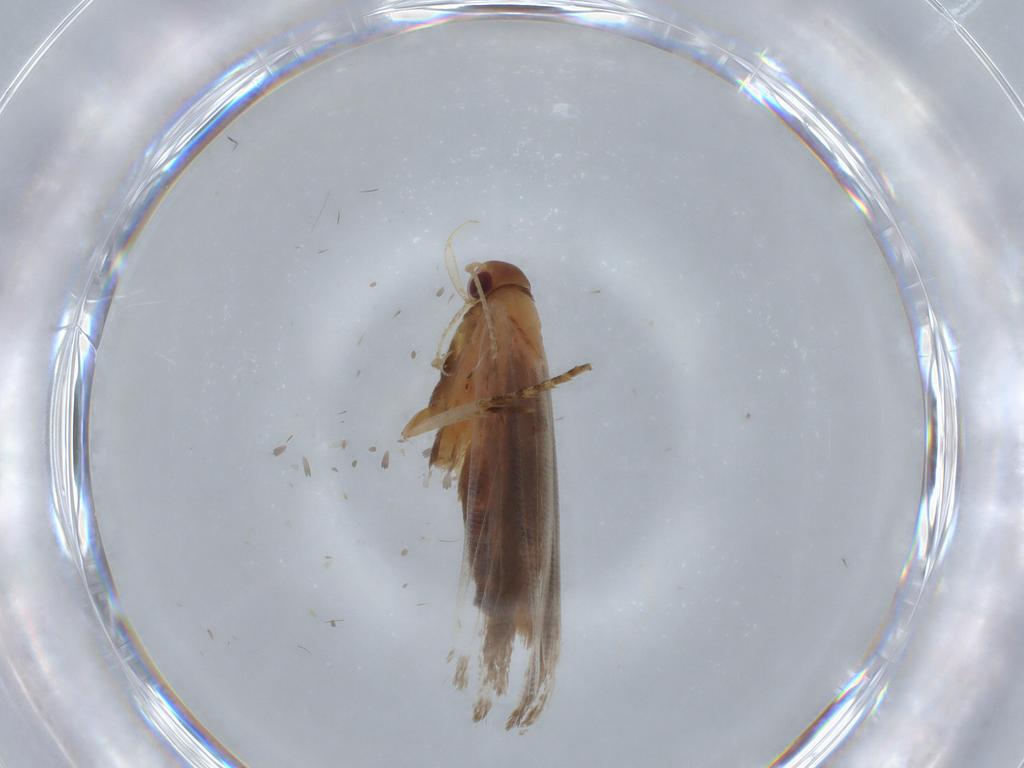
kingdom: Animalia
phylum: Arthropoda
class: Insecta
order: Lepidoptera
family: Gelechiidae
